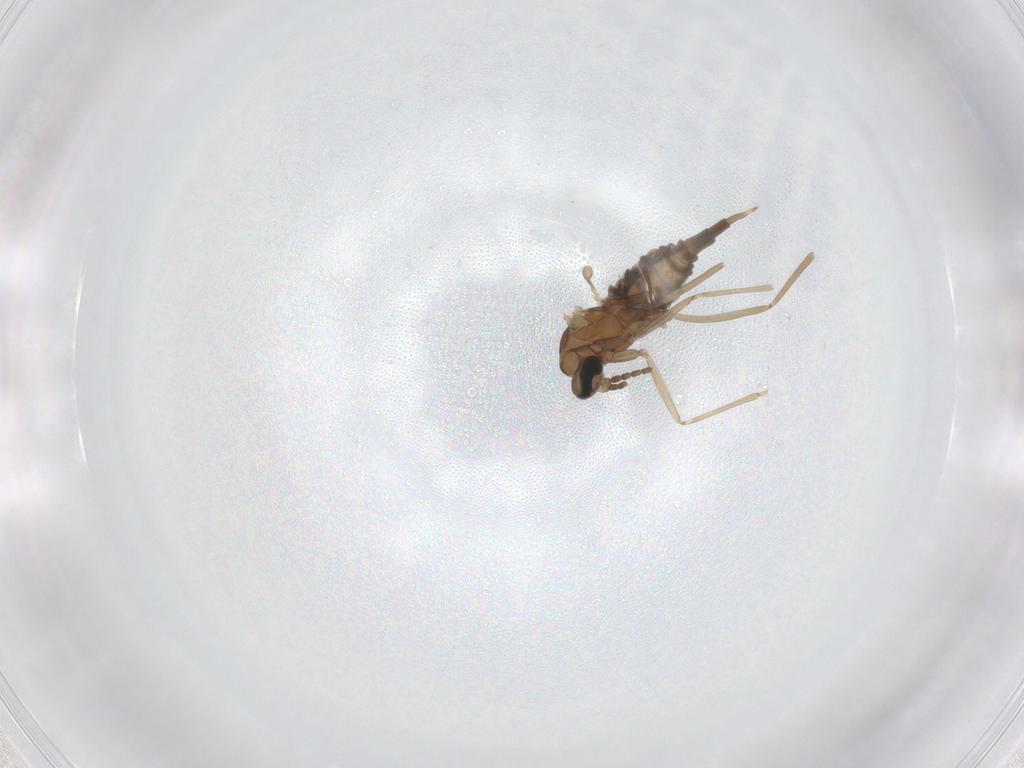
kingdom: Animalia
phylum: Arthropoda
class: Insecta
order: Diptera
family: Cecidomyiidae
